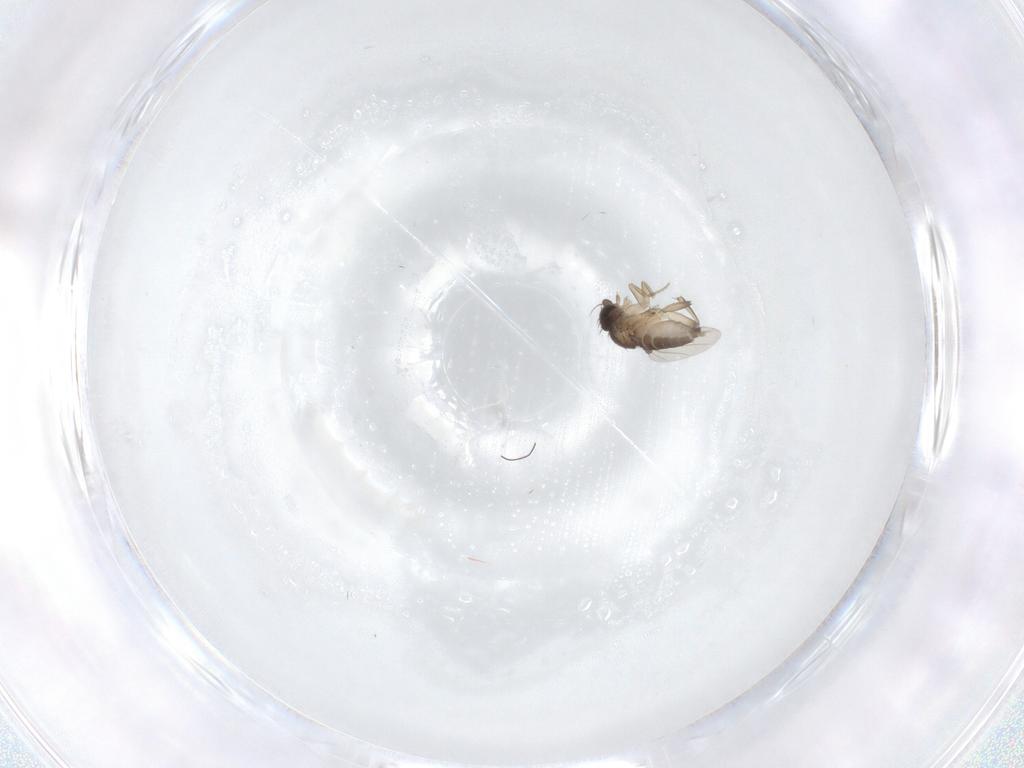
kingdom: Animalia
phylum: Arthropoda
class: Insecta
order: Diptera
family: Phoridae
